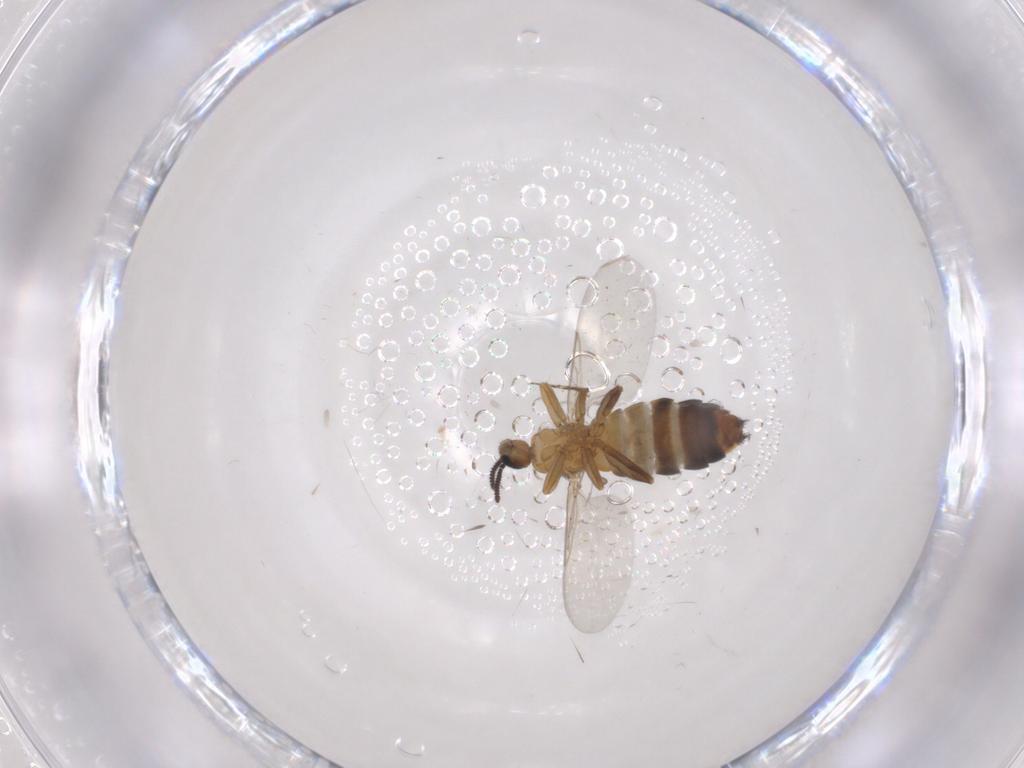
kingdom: Animalia
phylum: Arthropoda
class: Insecta
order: Diptera
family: Scatopsidae
